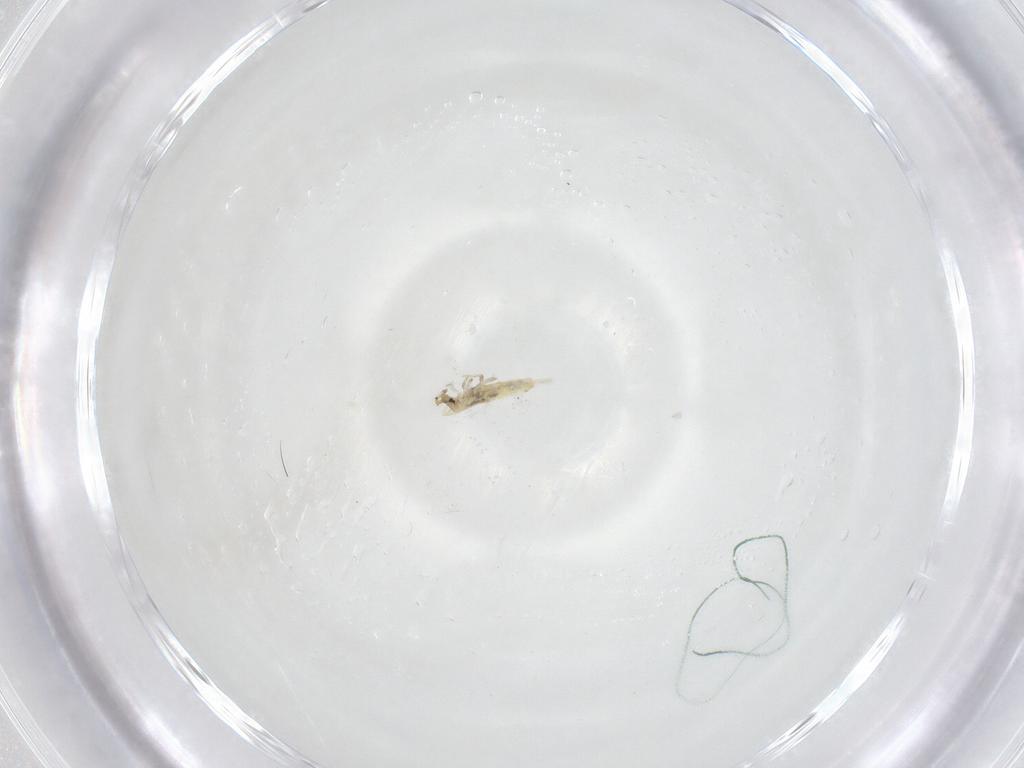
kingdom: Animalia
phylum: Arthropoda
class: Collembola
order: Entomobryomorpha
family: Entomobryidae
